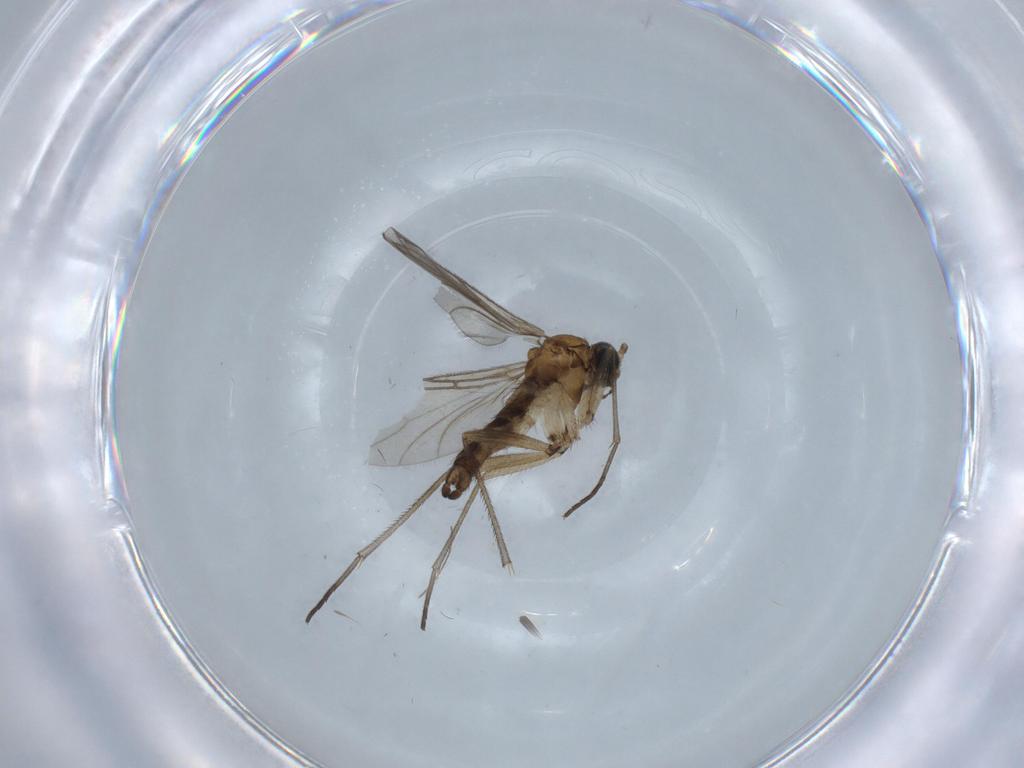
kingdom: Animalia
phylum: Arthropoda
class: Insecta
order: Diptera
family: Sciaridae
